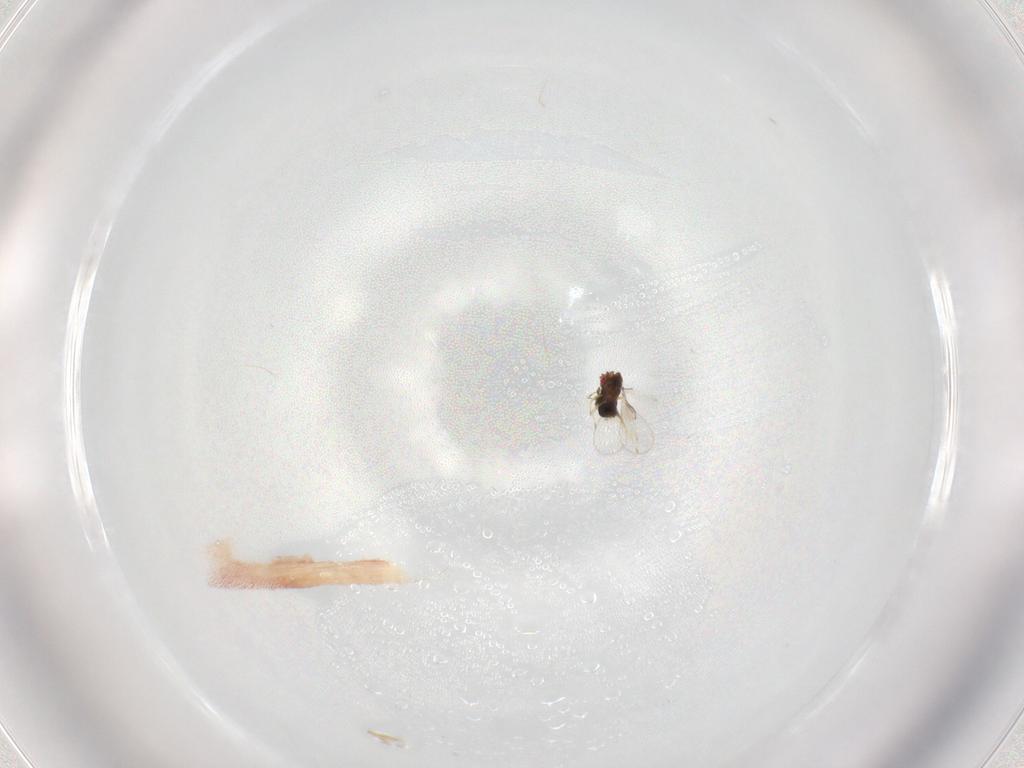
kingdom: Animalia
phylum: Arthropoda
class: Insecta
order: Hymenoptera
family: Trichogrammatidae
